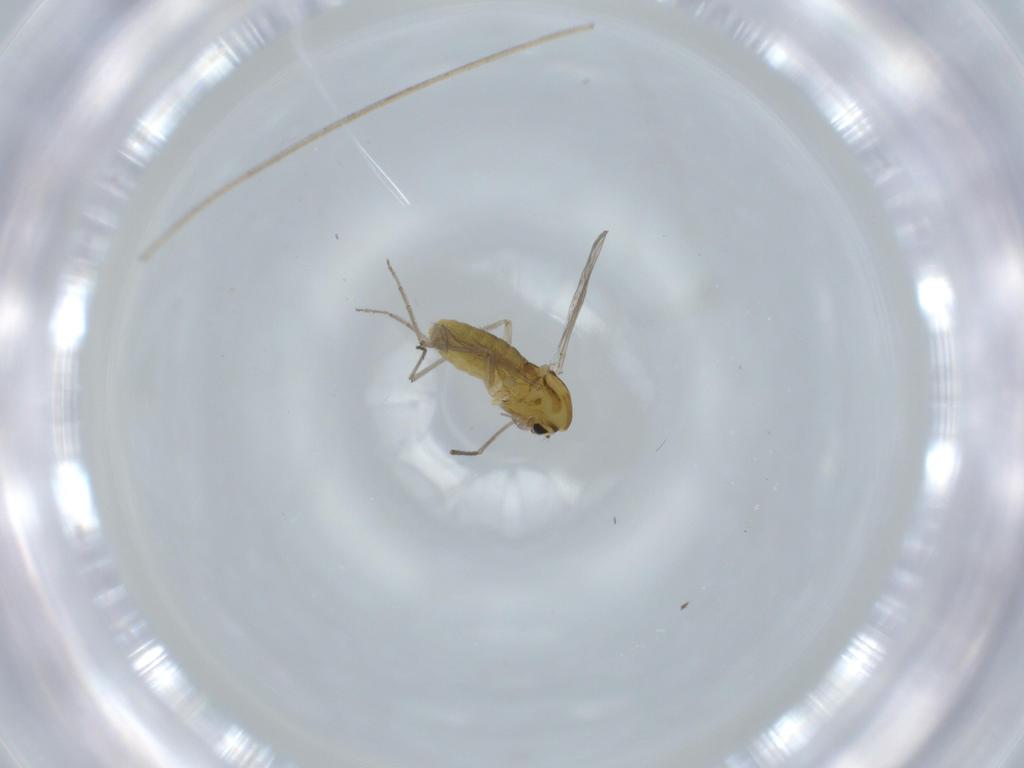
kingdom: Animalia
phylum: Arthropoda
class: Insecta
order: Diptera
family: Chironomidae
